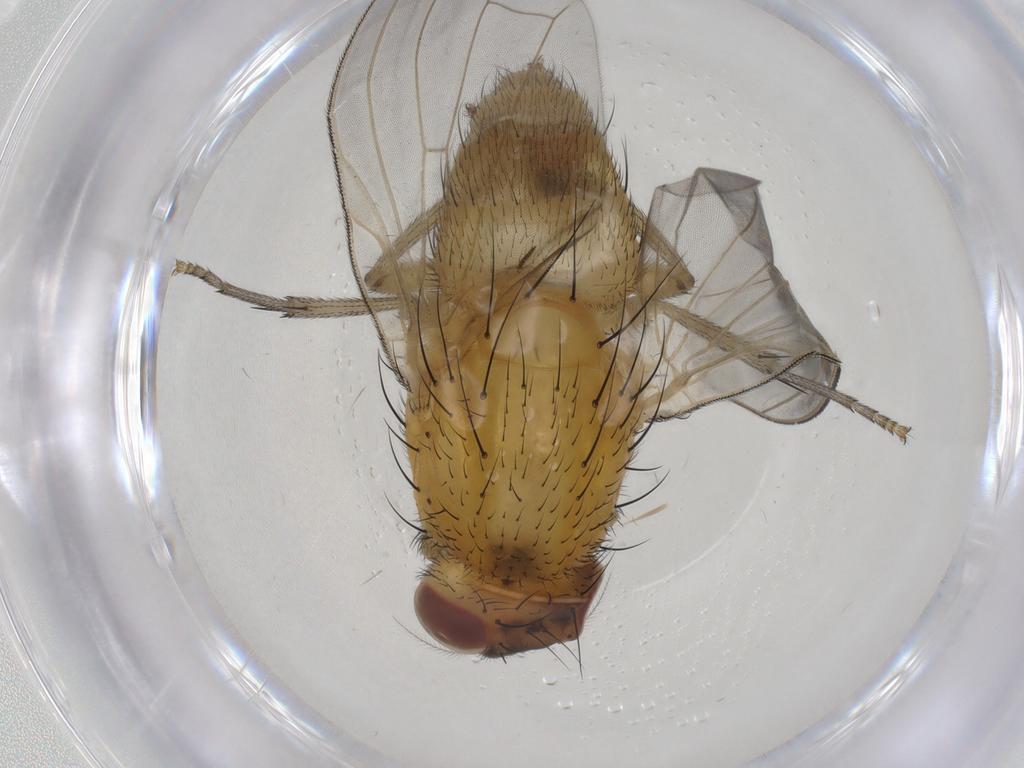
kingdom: Animalia
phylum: Arthropoda
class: Insecta
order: Diptera
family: Cecidomyiidae
